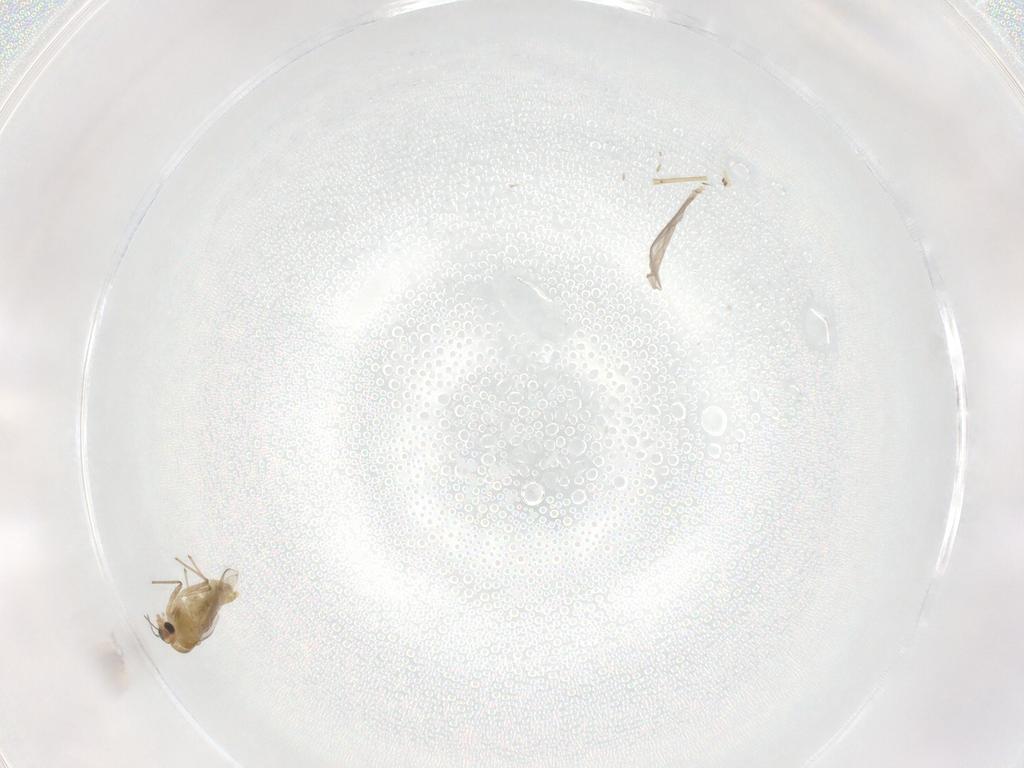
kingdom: Animalia
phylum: Arthropoda
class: Insecta
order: Diptera
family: Chironomidae
